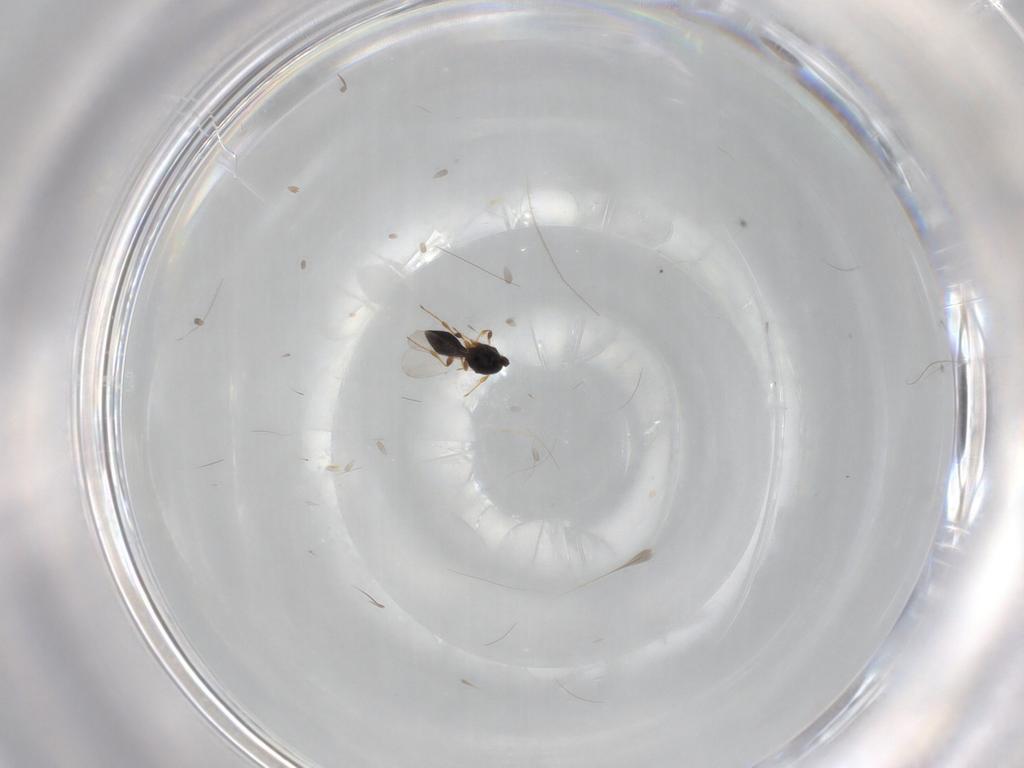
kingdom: Animalia
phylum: Arthropoda
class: Insecta
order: Hymenoptera
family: Platygastridae
